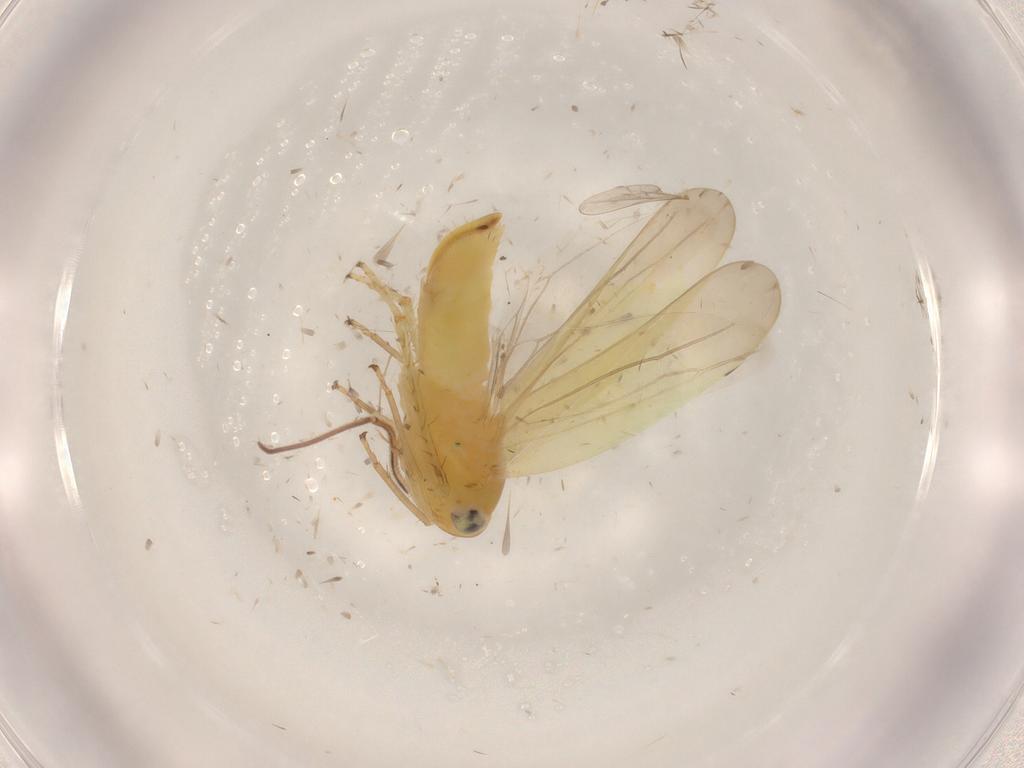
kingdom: Animalia
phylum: Arthropoda
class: Insecta
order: Hemiptera
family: Cicadellidae
